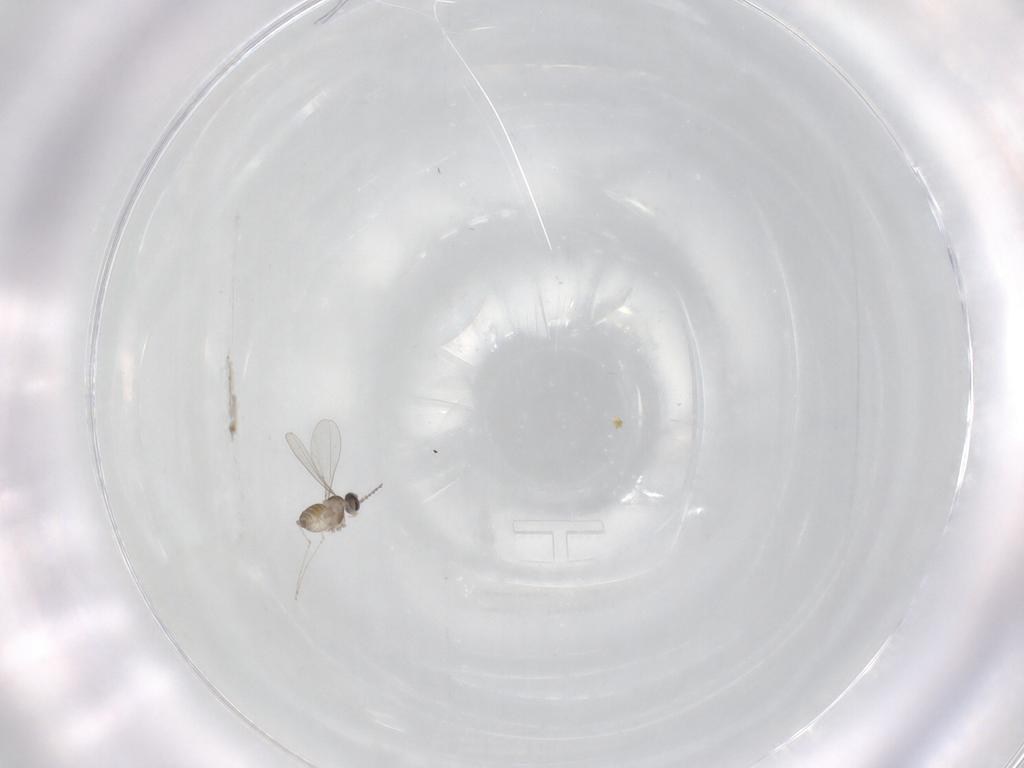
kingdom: Animalia
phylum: Arthropoda
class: Insecta
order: Diptera
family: Cecidomyiidae
